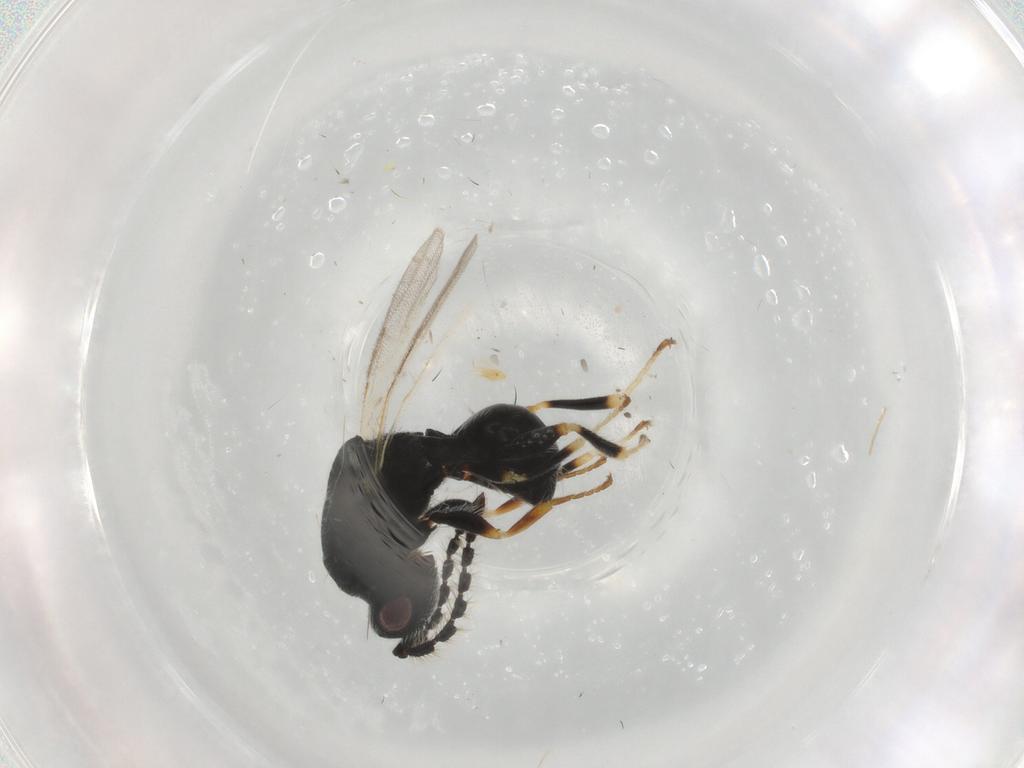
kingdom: Animalia
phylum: Arthropoda
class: Insecta
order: Hymenoptera
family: Eurytomidae
